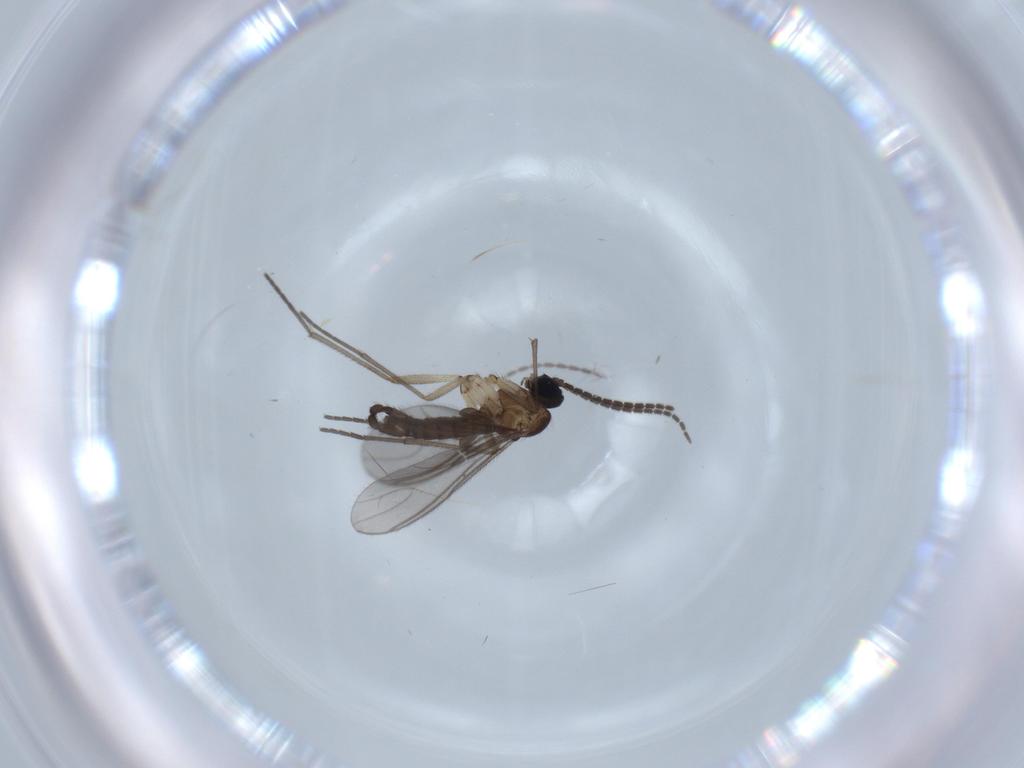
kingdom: Animalia
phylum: Arthropoda
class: Insecta
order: Diptera
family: Sciaridae
